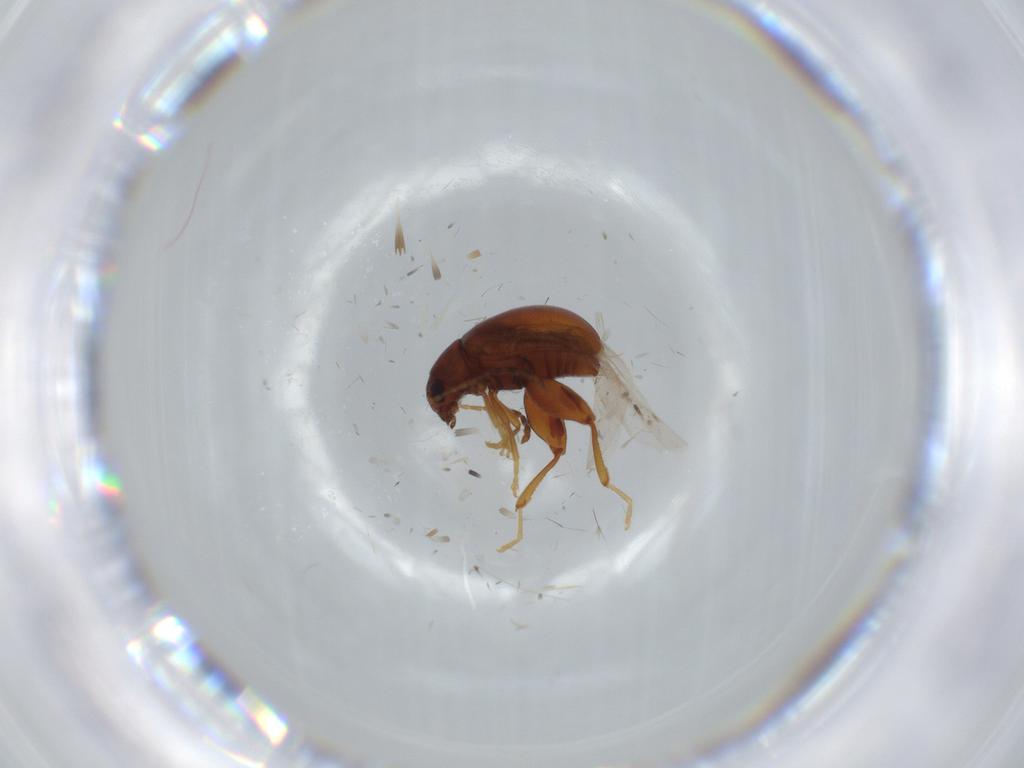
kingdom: Animalia
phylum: Arthropoda
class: Insecta
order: Coleoptera
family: Chrysomelidae
